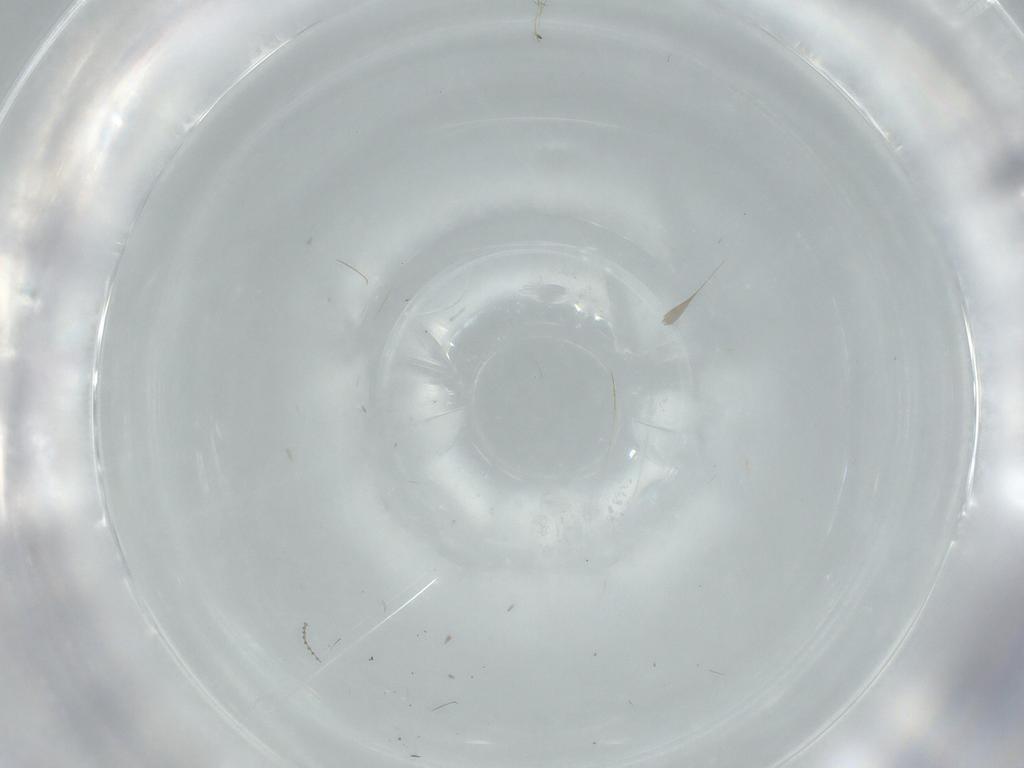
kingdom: Animalia
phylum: Arthropoda
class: Insecta
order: Diptera
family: Cecidomyiidae
